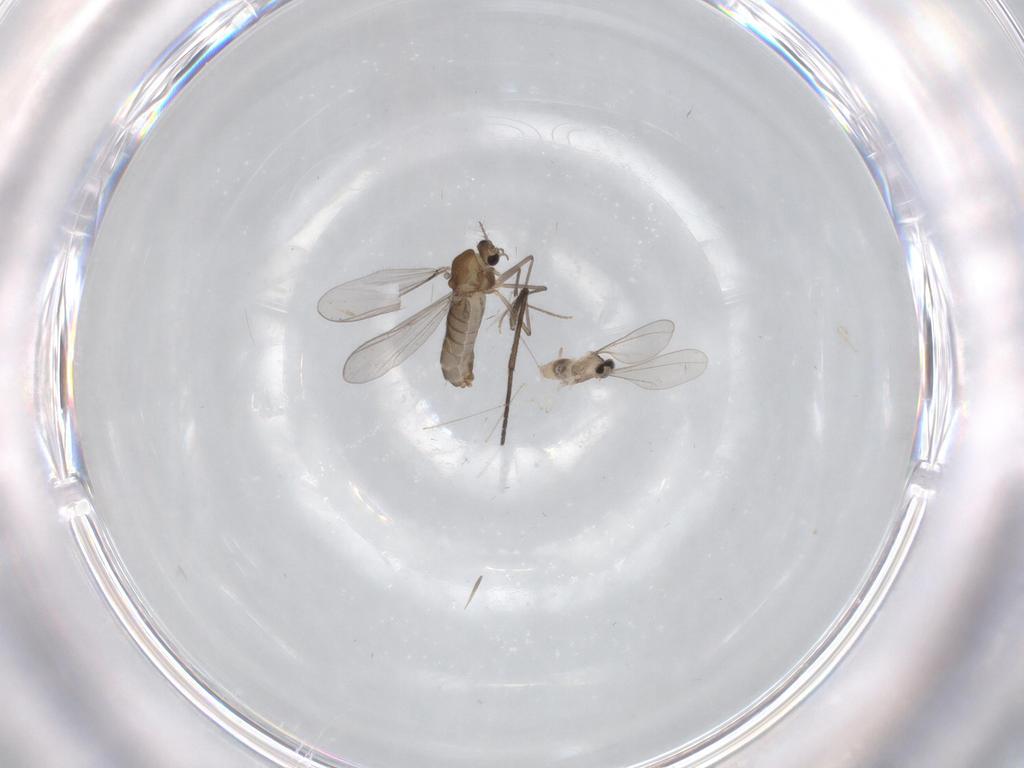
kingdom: Animalia
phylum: Arthropoda
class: Insecta
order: Diptera
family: Chironomidae
